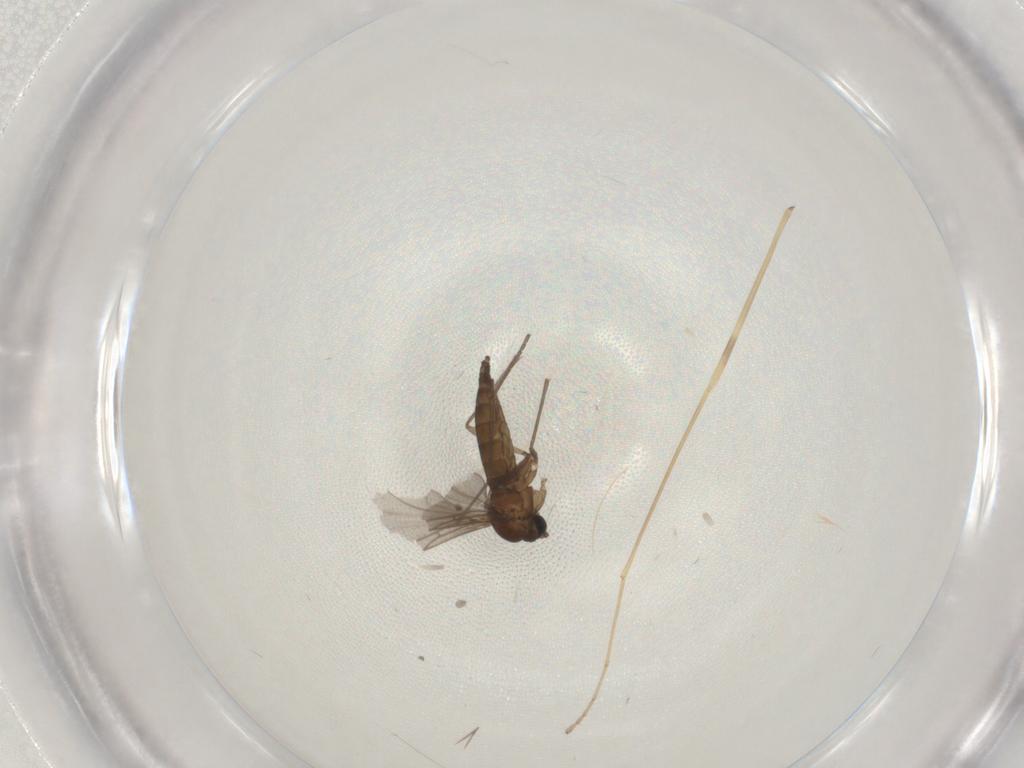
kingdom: Animalia
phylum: Arthropoda
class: Insecta
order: Diptera
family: Sciaridae
